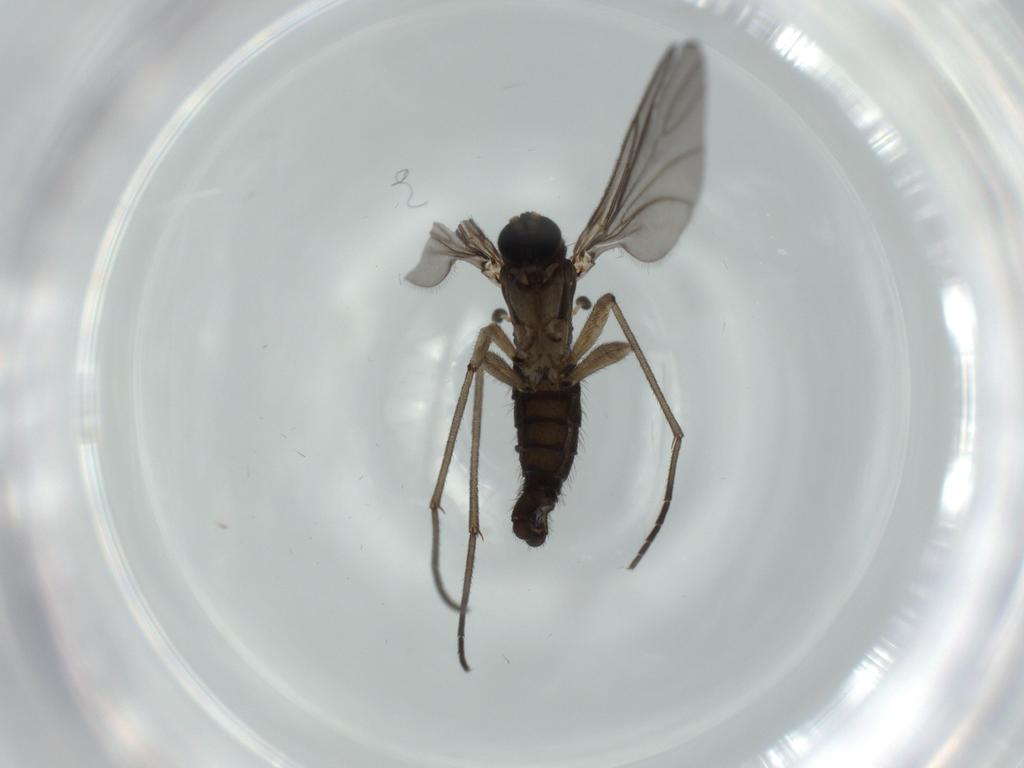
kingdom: Animalia
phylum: Arthropoda
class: Insecta
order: Diptera
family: Sciaridae
